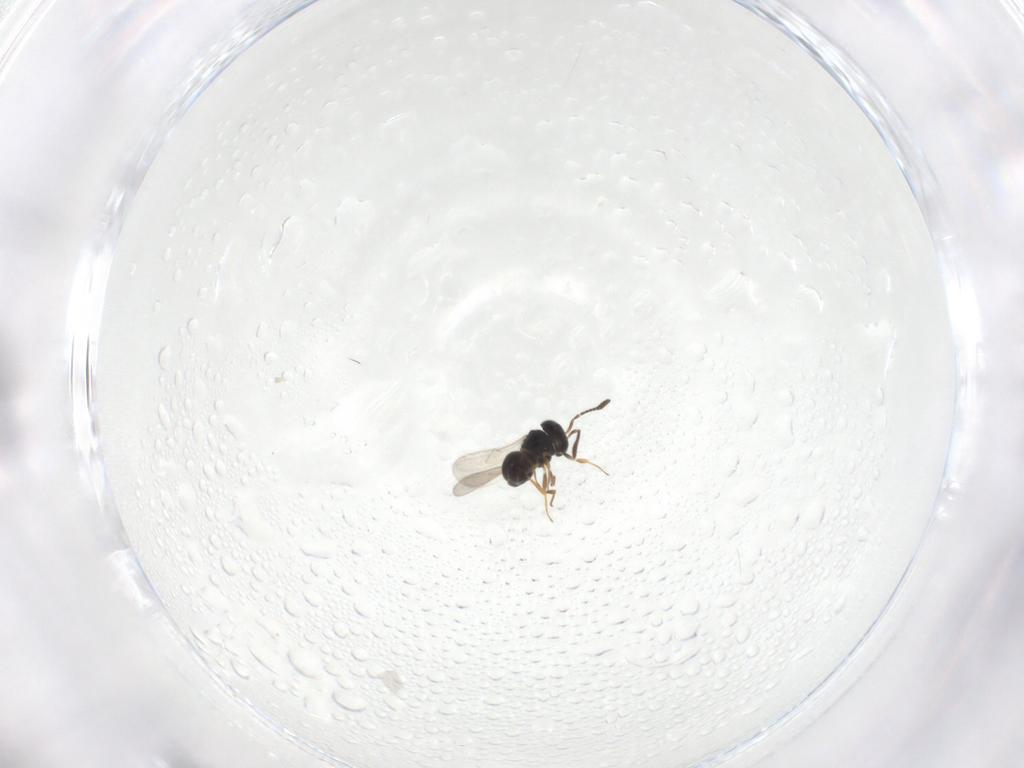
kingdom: Animalia
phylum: Arthropoda
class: Insecta
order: Hymenoptera
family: Scelionidae
